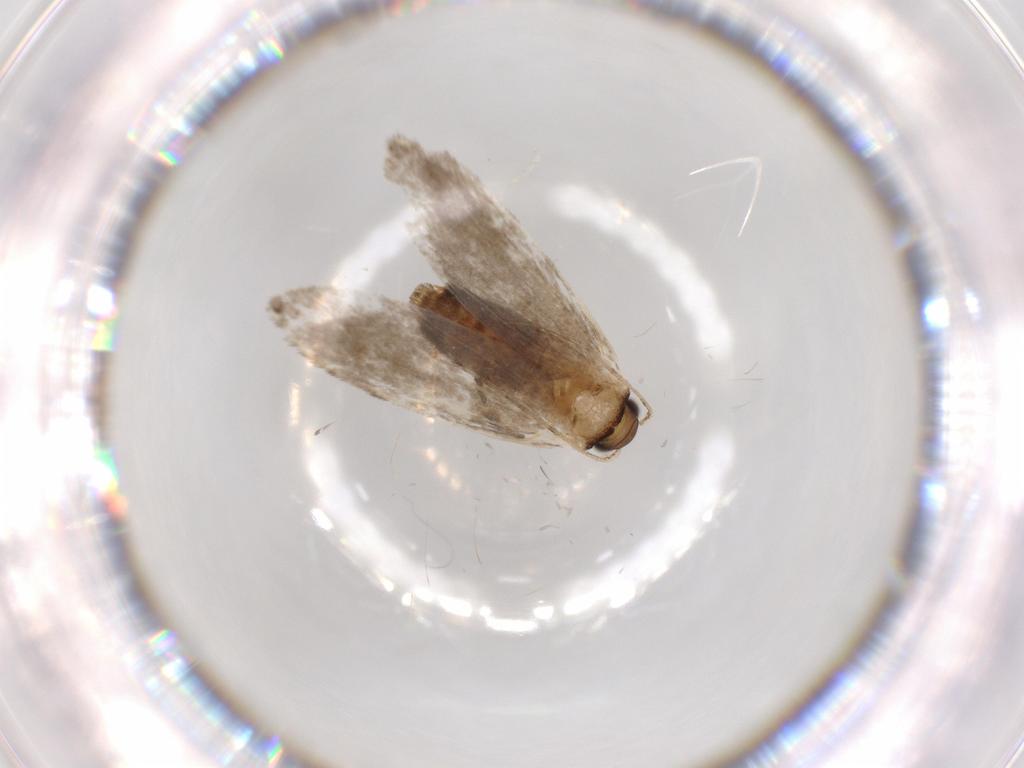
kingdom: Animalia
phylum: Arthropoda
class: Insecta
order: Lepidoptera
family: Tineidae
